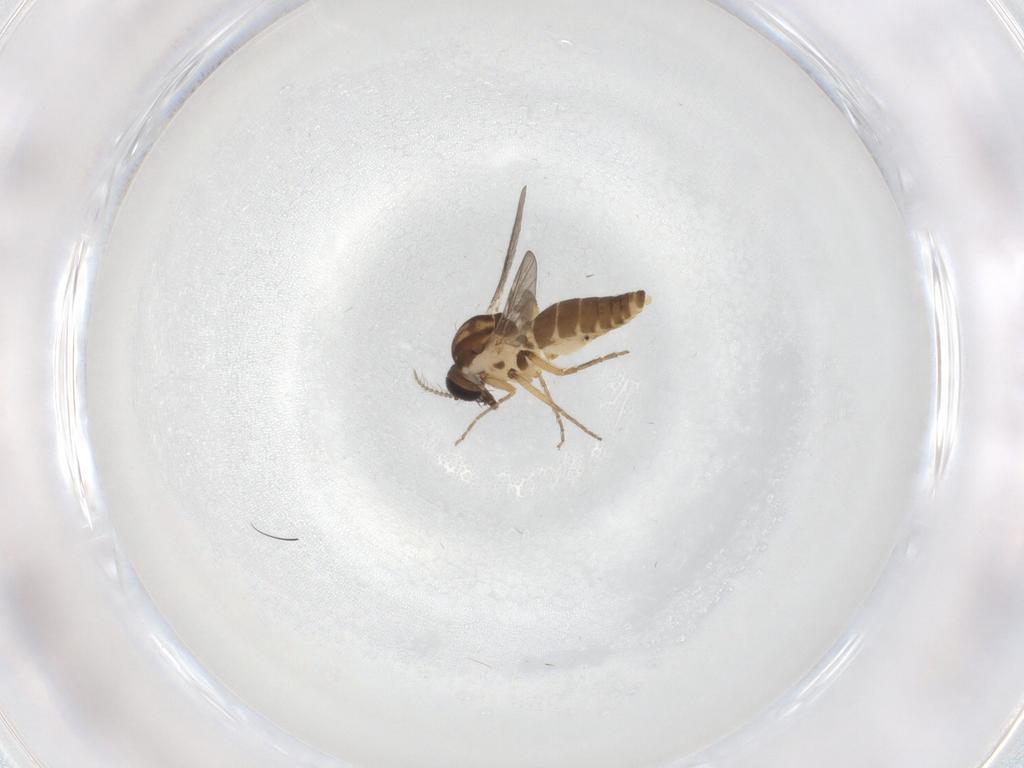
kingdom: Animalia
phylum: Arthropoda
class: Insecta
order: Diptera
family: Ceratopogonidae
